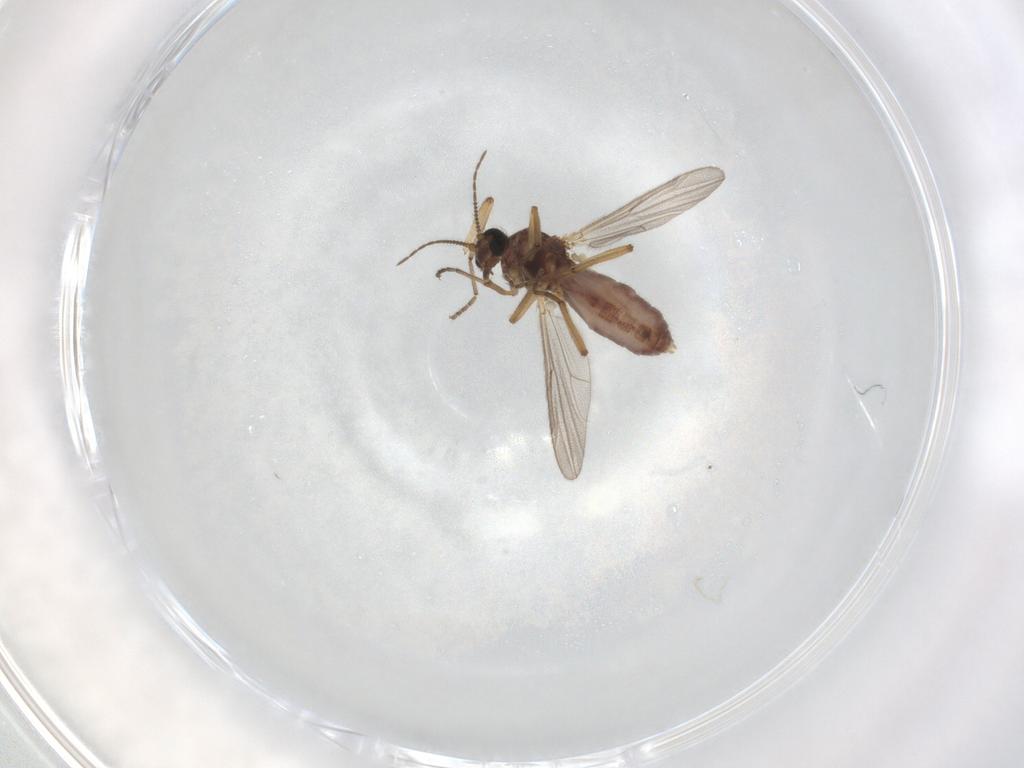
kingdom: Animalia
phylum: Arthropoda
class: Insecta
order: Diptera
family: Ceratopogonidae
